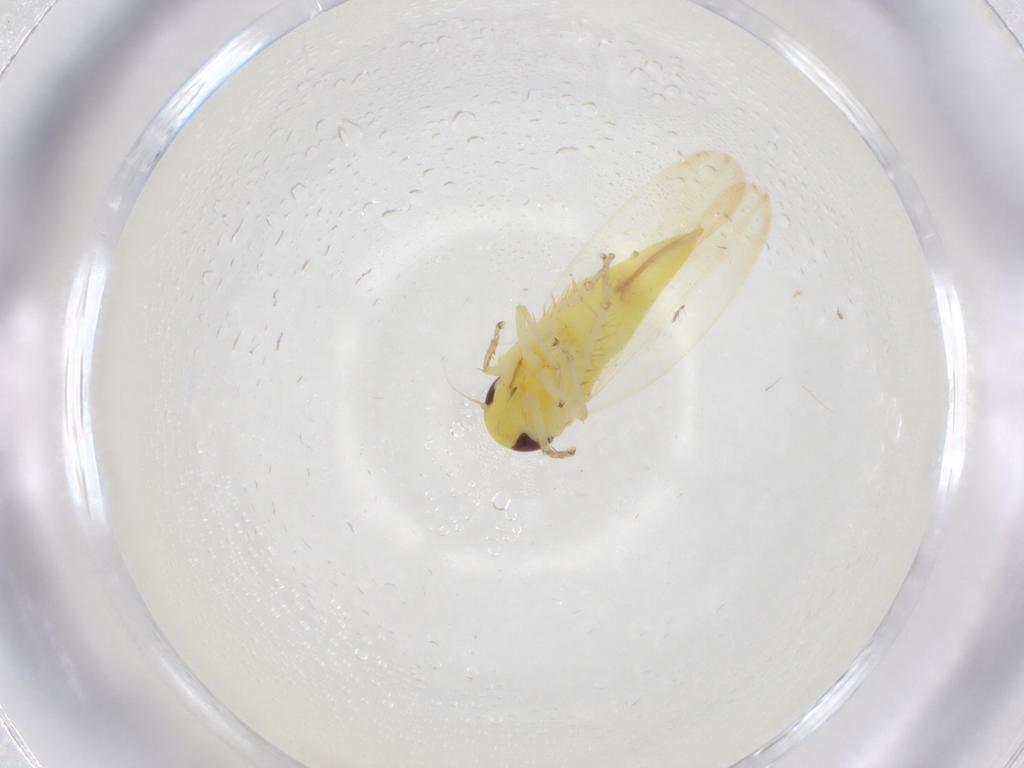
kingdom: Animalia
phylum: Arthropoda
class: Insecta
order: Hemiptera
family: Cicadellidae
